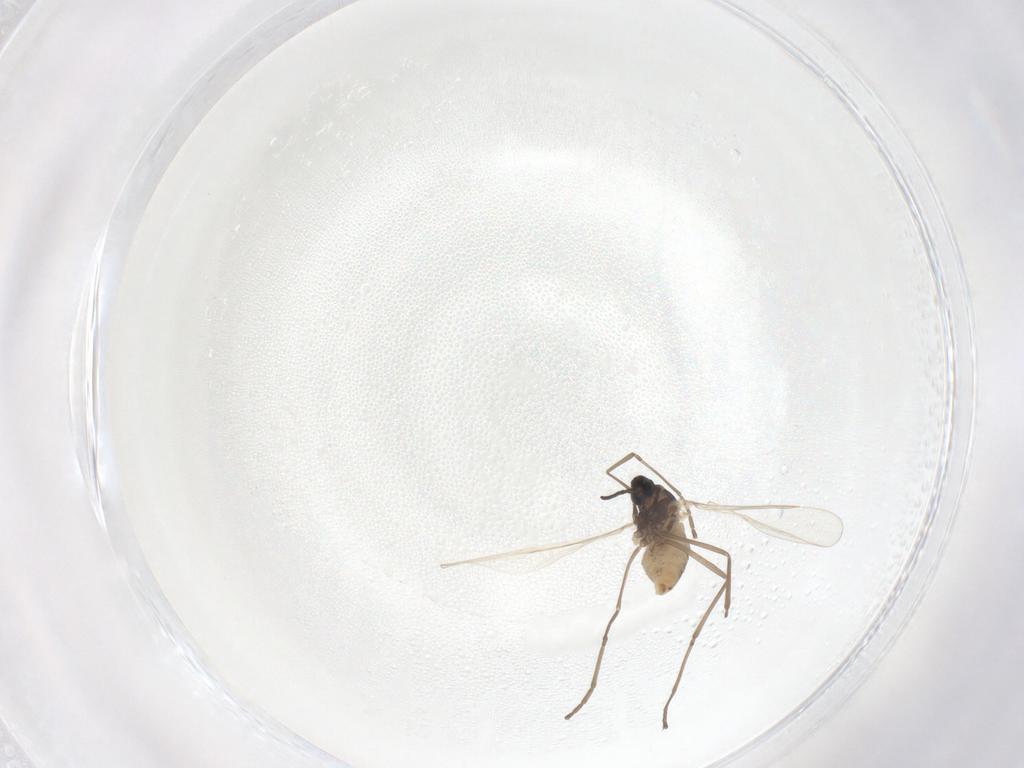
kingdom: Animalia
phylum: Arthropoda
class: Insecta
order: Diptera
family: Cecidomyiidae
